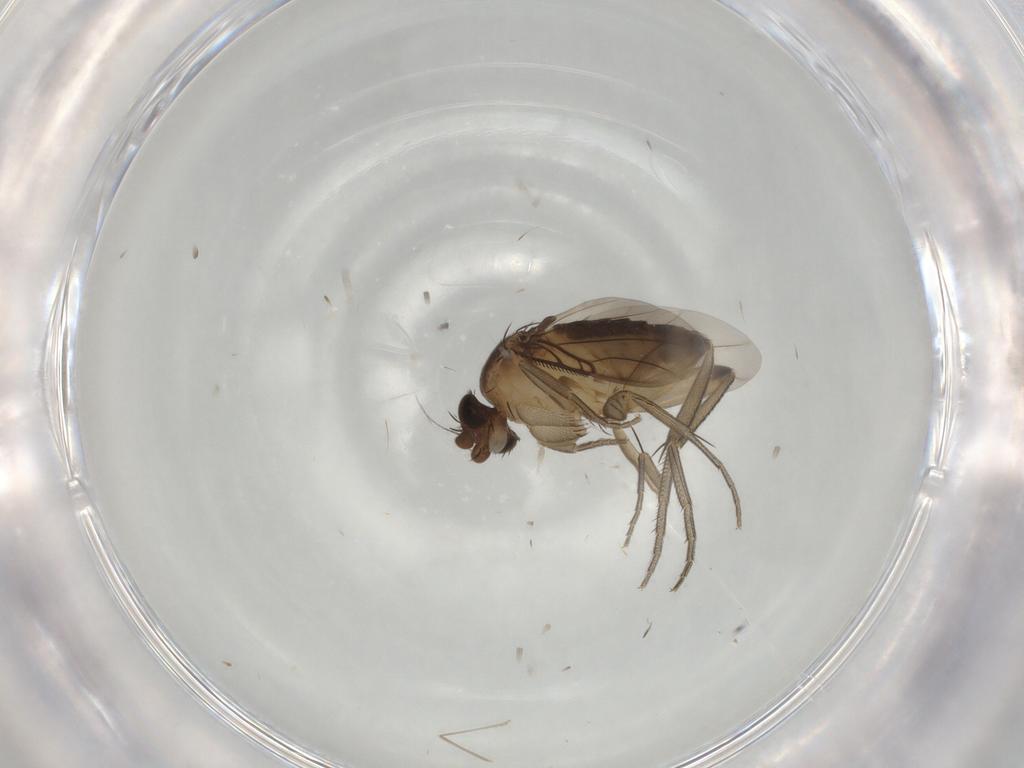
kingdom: Animalia
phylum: Arthropoda
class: Insecta
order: Diptera
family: Phoridae
